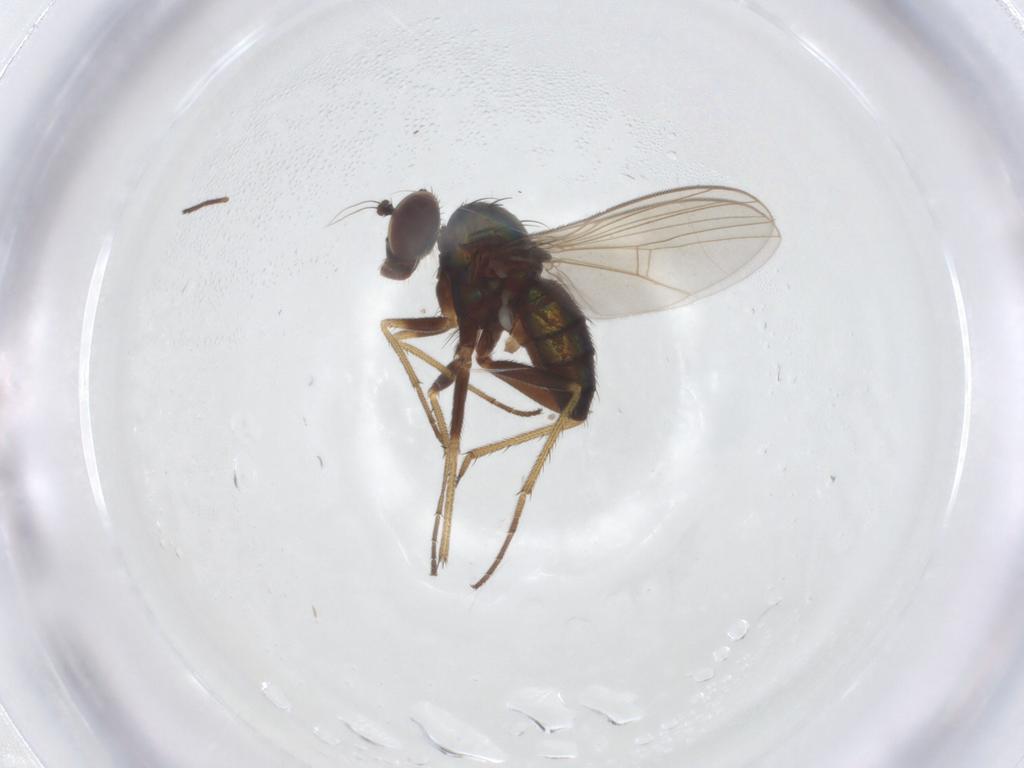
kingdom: Animalia
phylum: Arthropoda
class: Insecta
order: Diptera
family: Dolichopodidae
